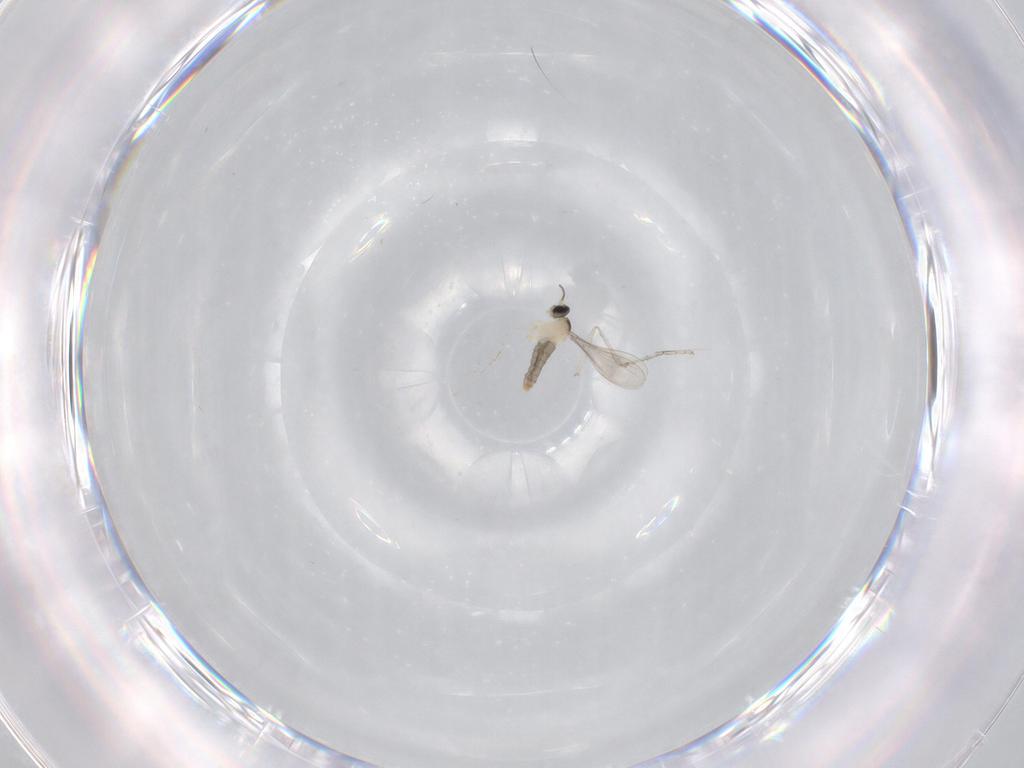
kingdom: Animalia
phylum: Arthropoda
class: Insecta
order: Diptera
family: Cecidomyiidae
